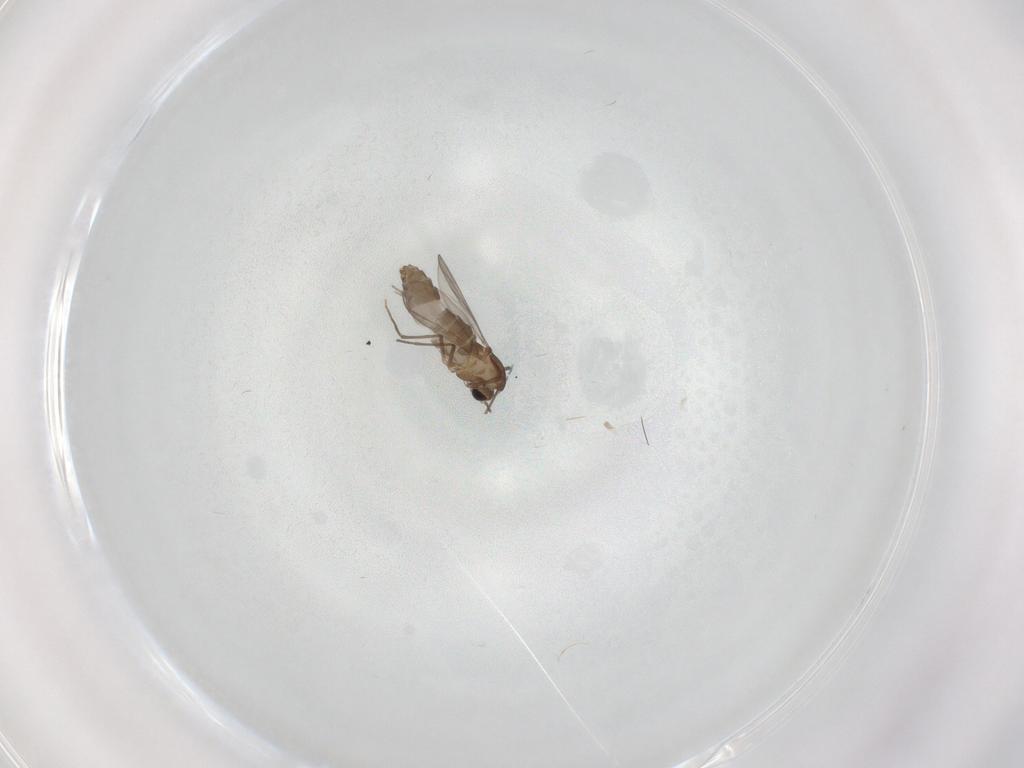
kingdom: Animalia
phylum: Arthropoda
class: Insecta
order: Diptera
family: Chironomidae
